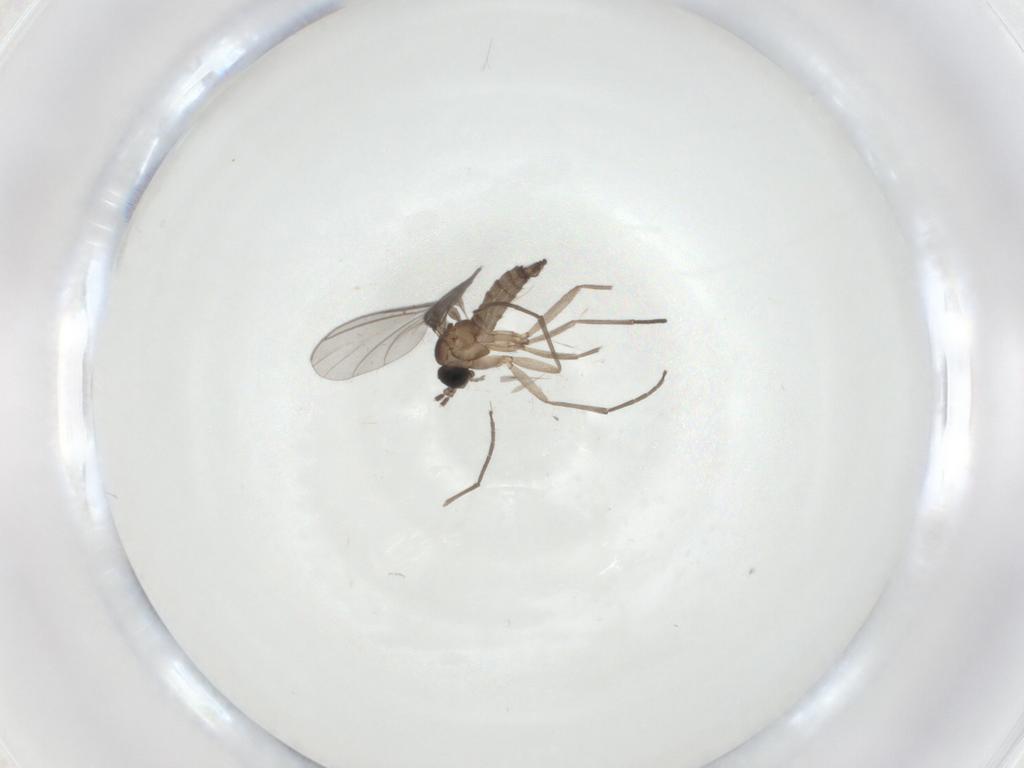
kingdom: Animalia
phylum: Arthropoda
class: Insecta
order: Diptera
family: Sciaridae
